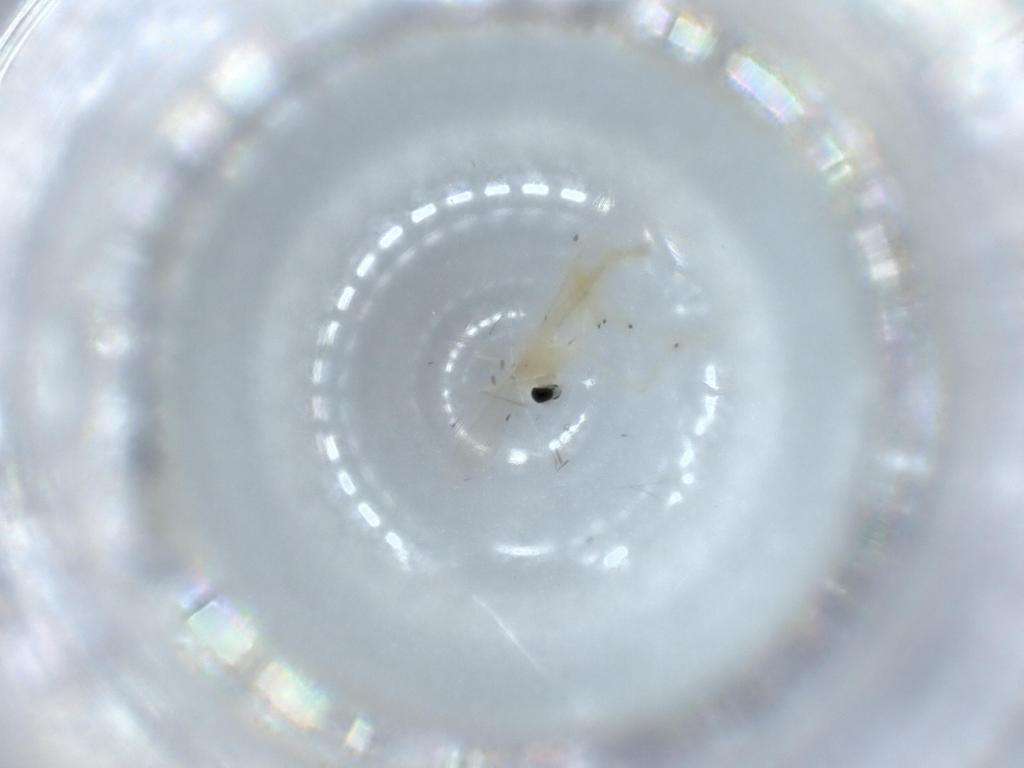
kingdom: Animalia
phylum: Arthropoda
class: Insecta
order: Diptera
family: Chironomidae
